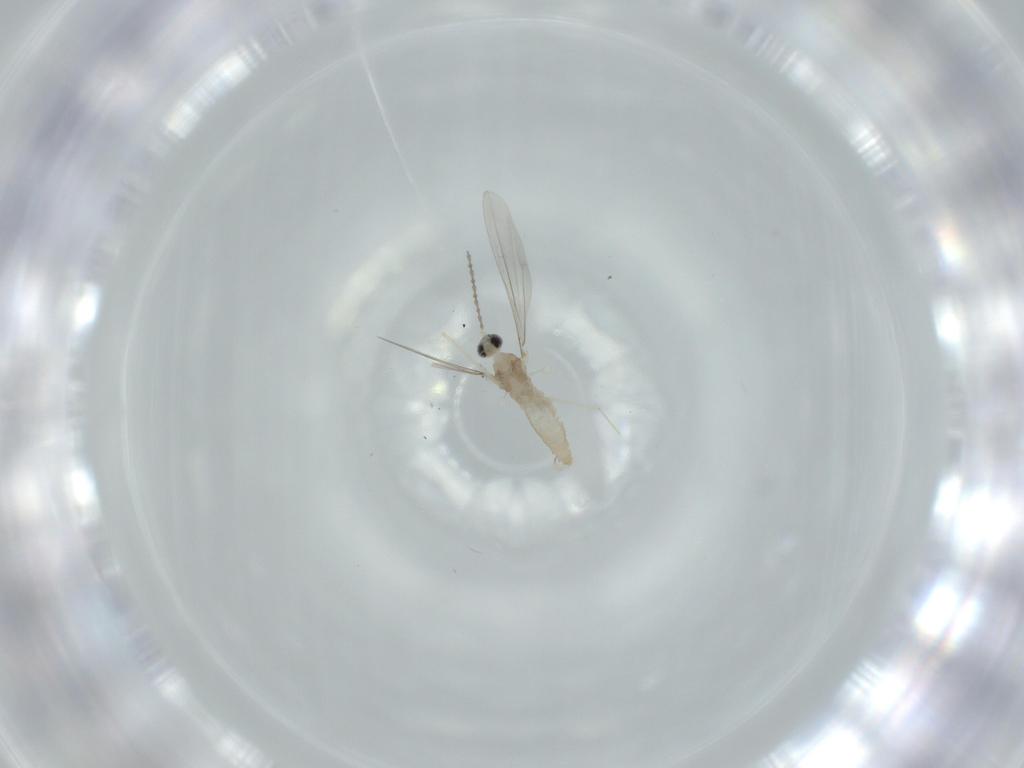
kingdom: Animalia
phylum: Arthropoda
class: Insecta
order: Diptera
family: Cecidomyiidae
